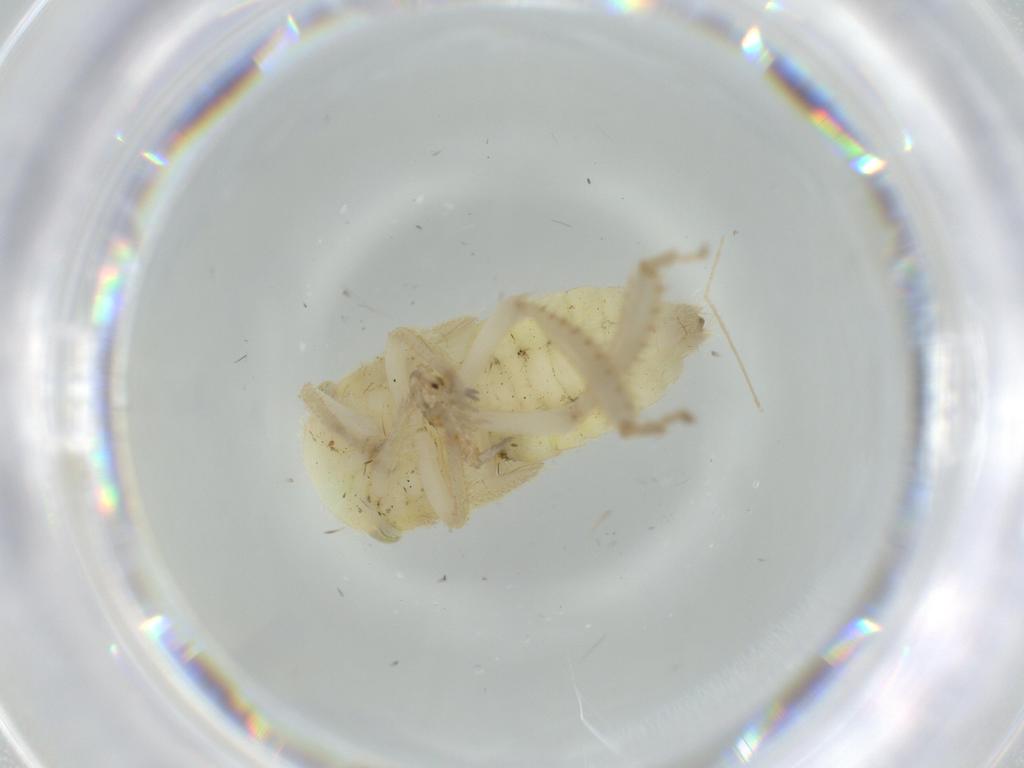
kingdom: Animalia
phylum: Arthropoda
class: Insecta
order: Hemiptera
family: Cicadellidae
